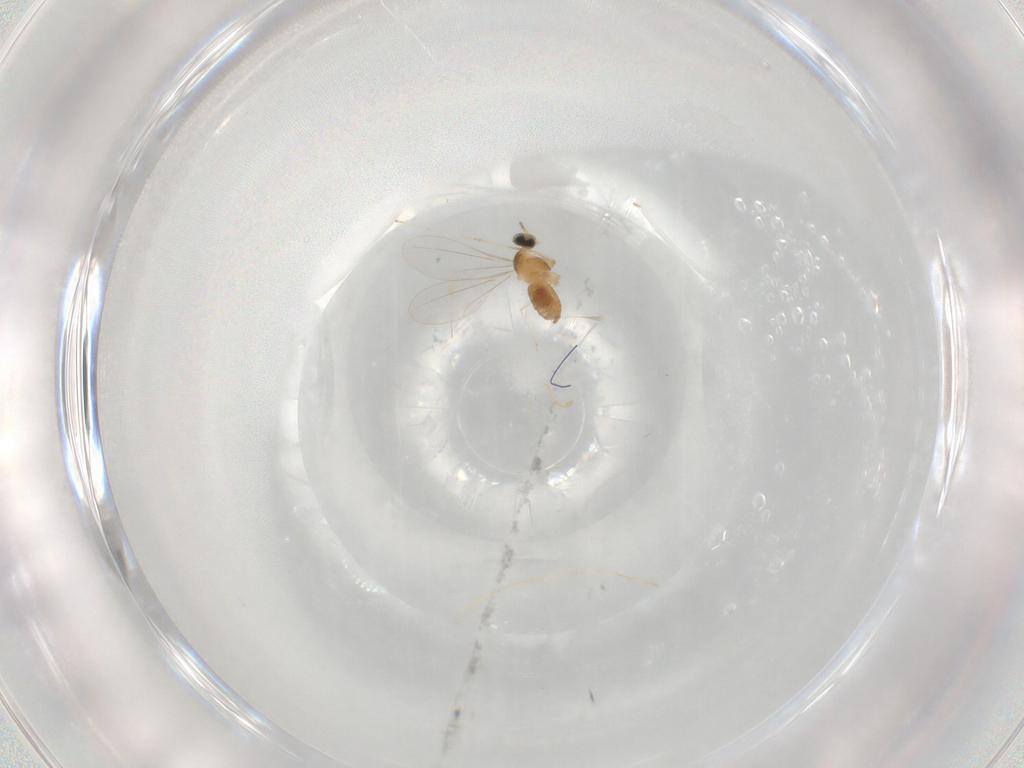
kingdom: Animalia
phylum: Arthropoda
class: Insecta
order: Diptera
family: Cecidomyiidae
